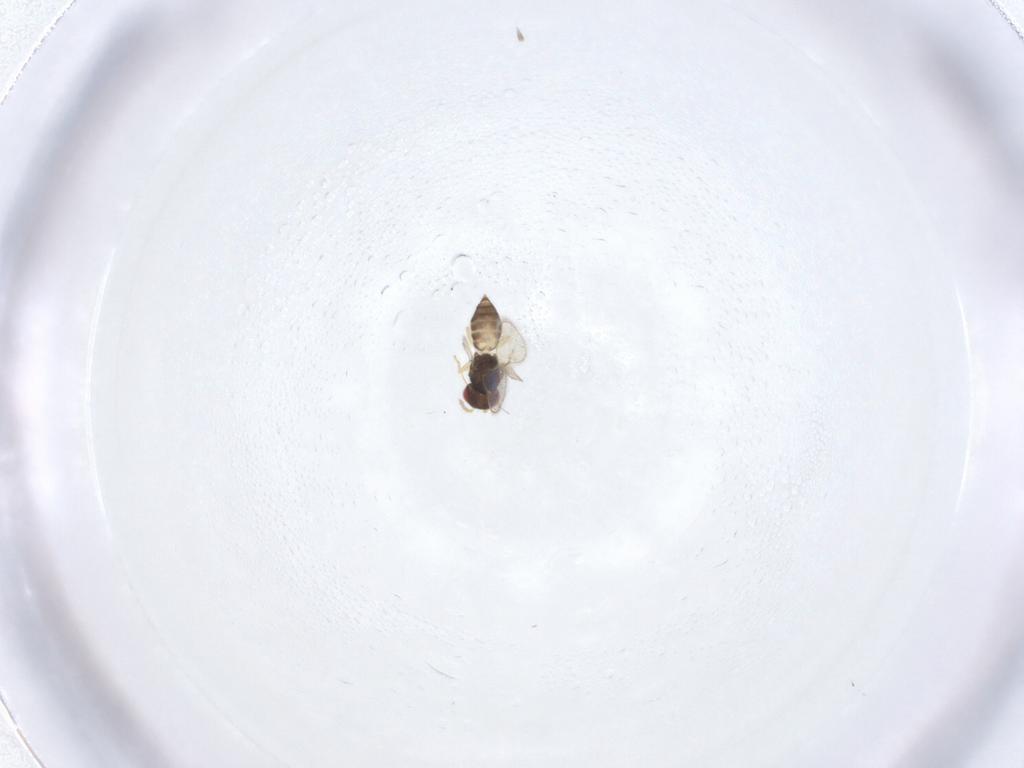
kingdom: Animalia
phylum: Arthropoda
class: Insecta
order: Hymenoptera
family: Eulophidae
